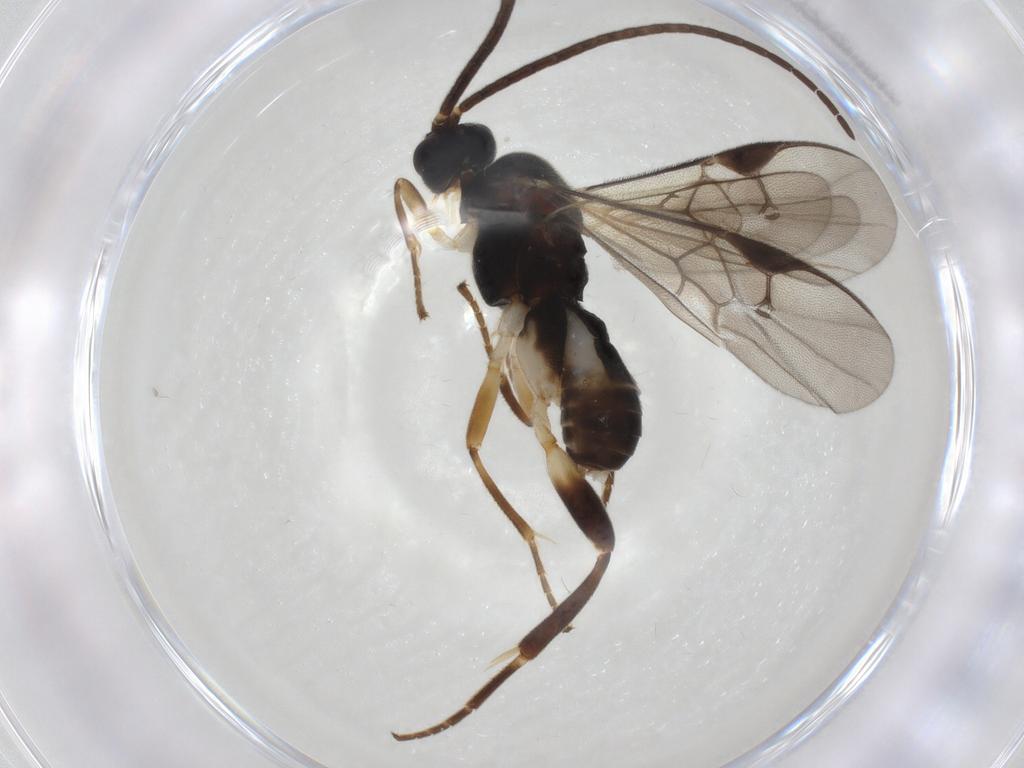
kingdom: Animalia
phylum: Arthropoda
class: Insecta
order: Hymenoptera
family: Braconidae
